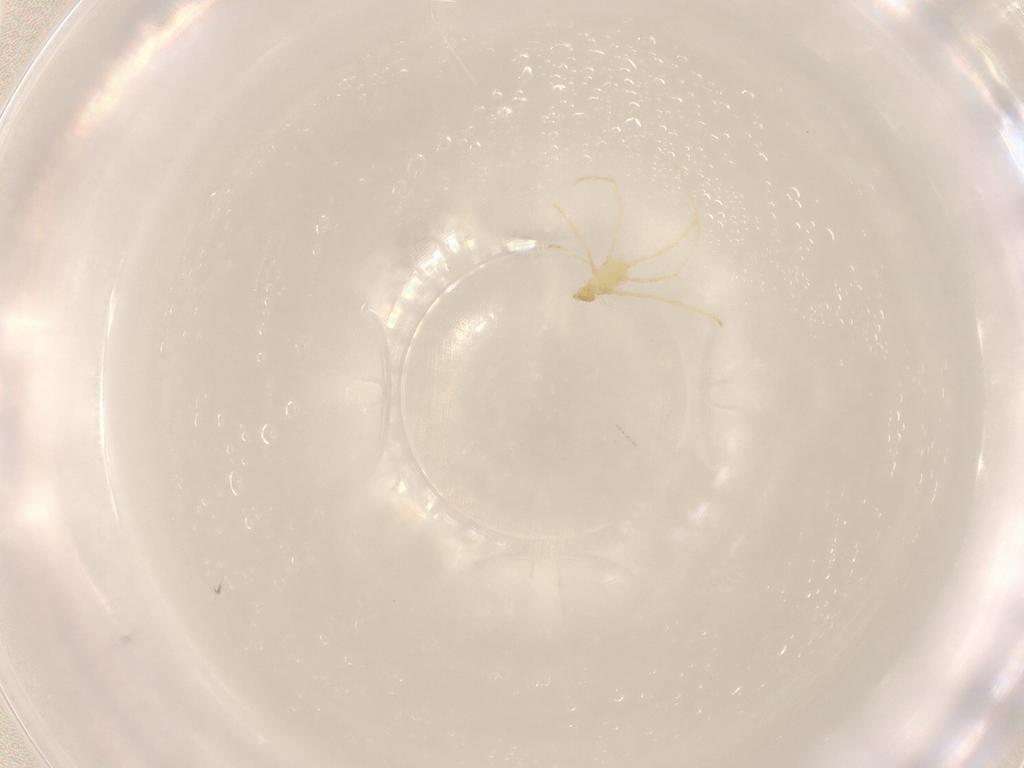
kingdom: Animalia
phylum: Arthropoda
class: Arachnida
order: Trombidiformes
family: Erythraeidae
